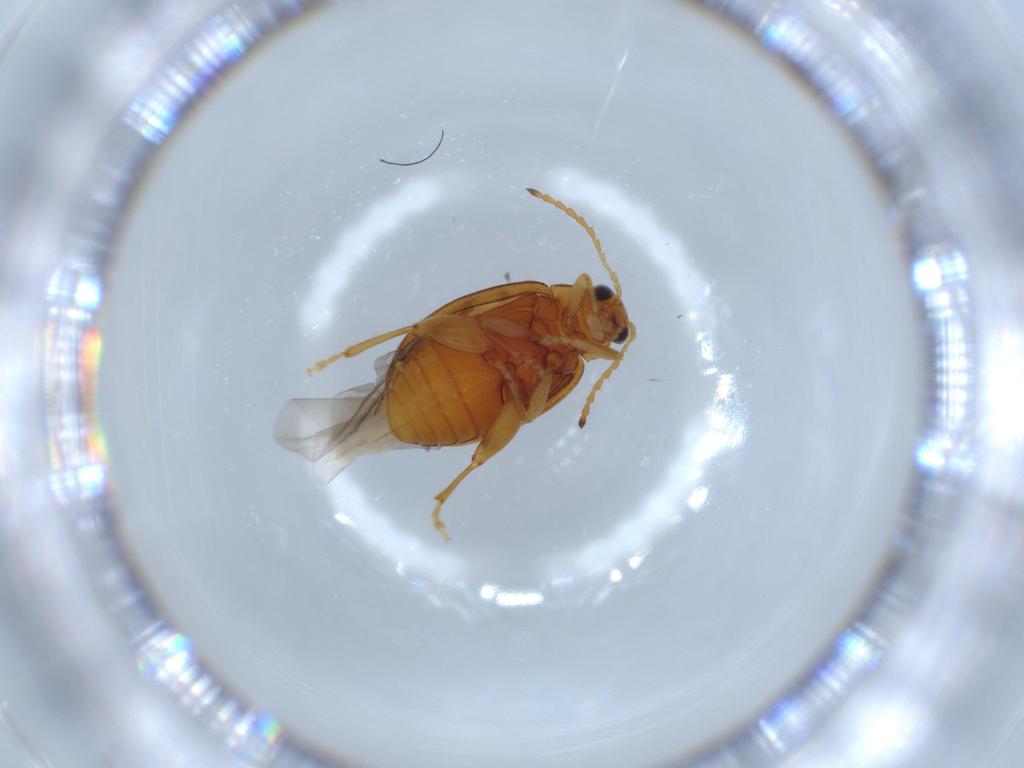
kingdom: Animalia
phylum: Arthropoda
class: Insecta
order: Coleoptera
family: Chrysomelidae
